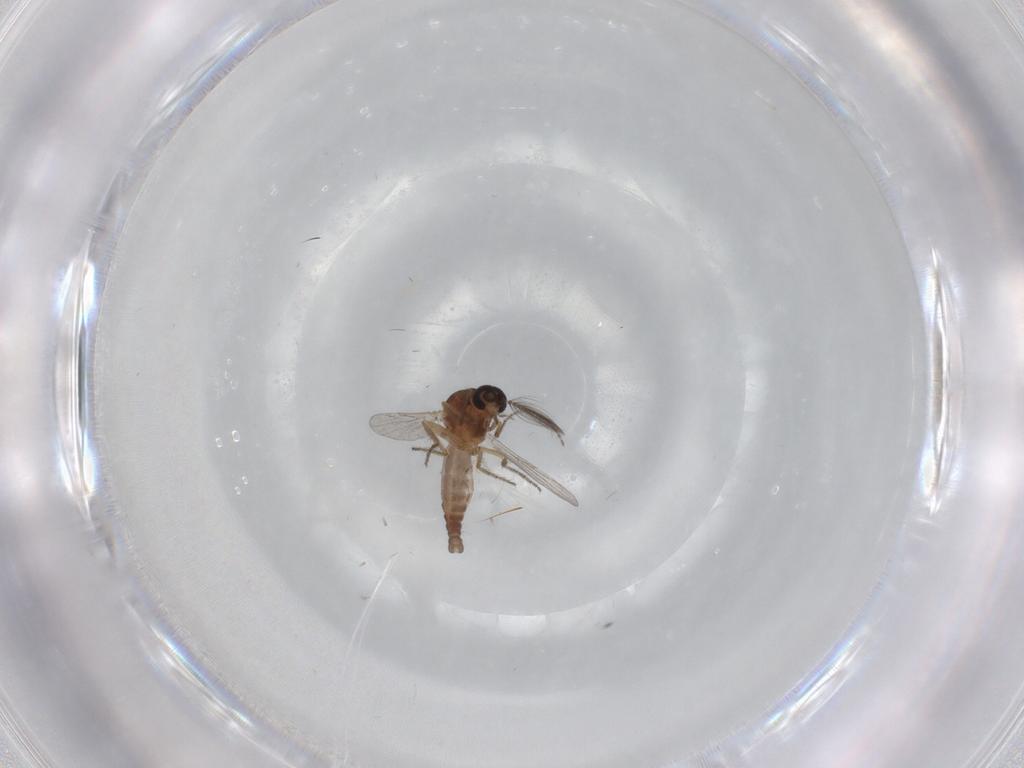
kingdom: Animalia
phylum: Arthropoda
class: Insecta
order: Diptera
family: Ceratopogonidae
